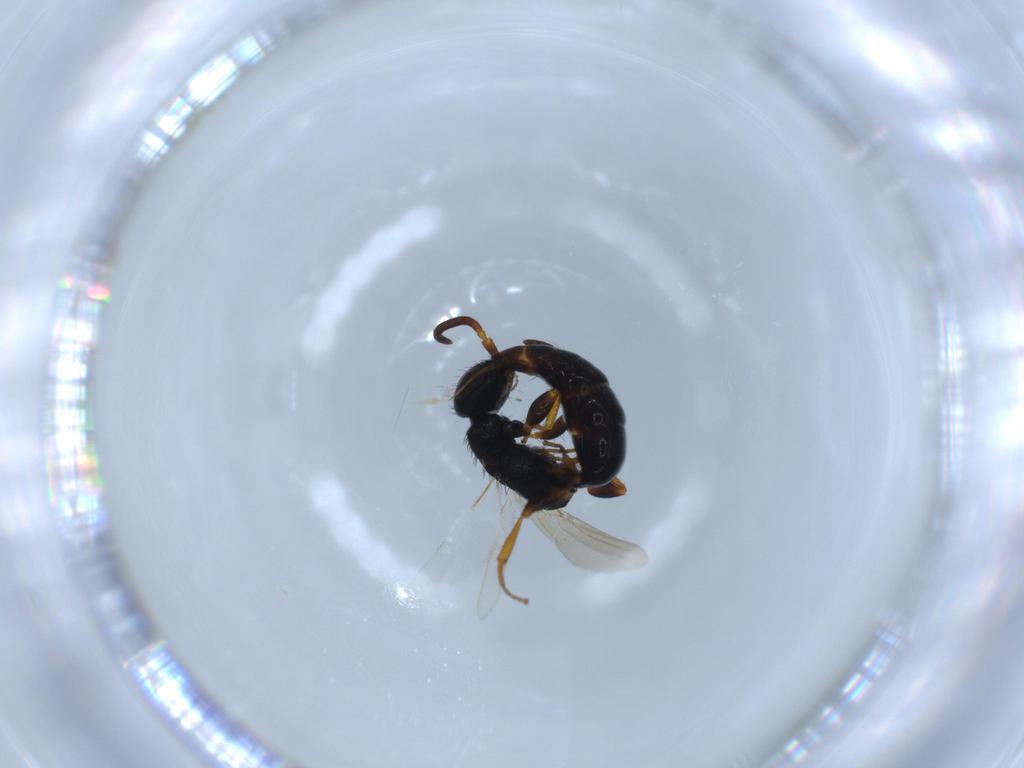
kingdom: Animalia
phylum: Arthropoda
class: Insecta
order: Hymenoptera
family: Bethylidae
